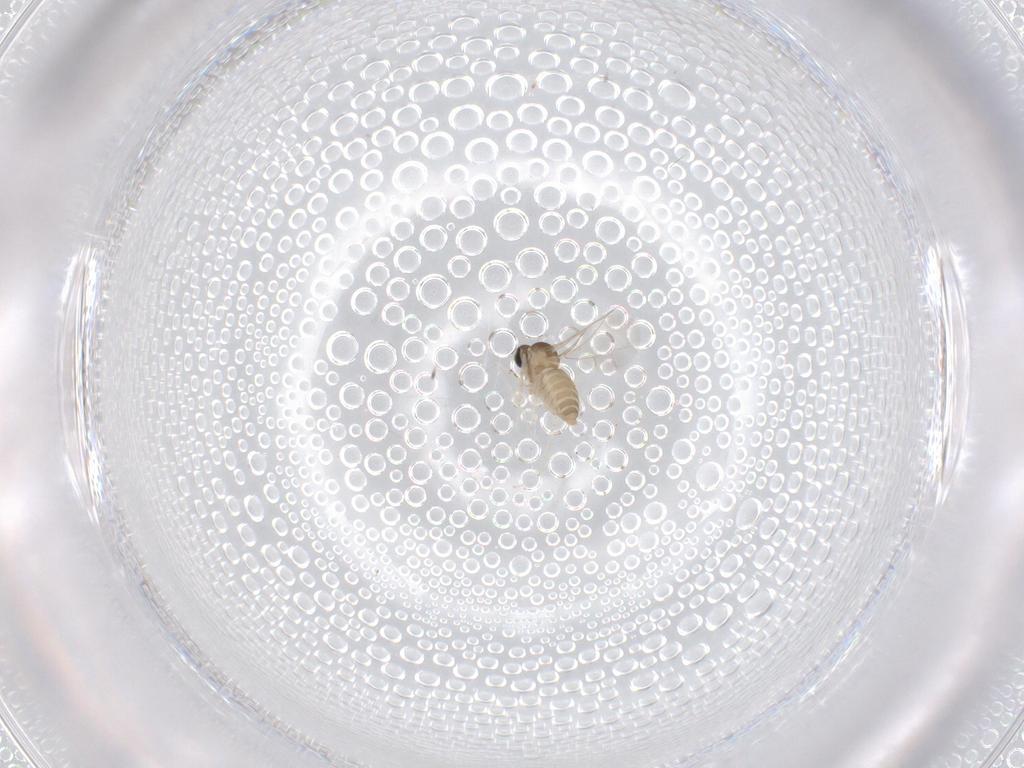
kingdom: Animalia
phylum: Arthropoda
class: Insecta
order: Diptera
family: Cecidomyiidae
